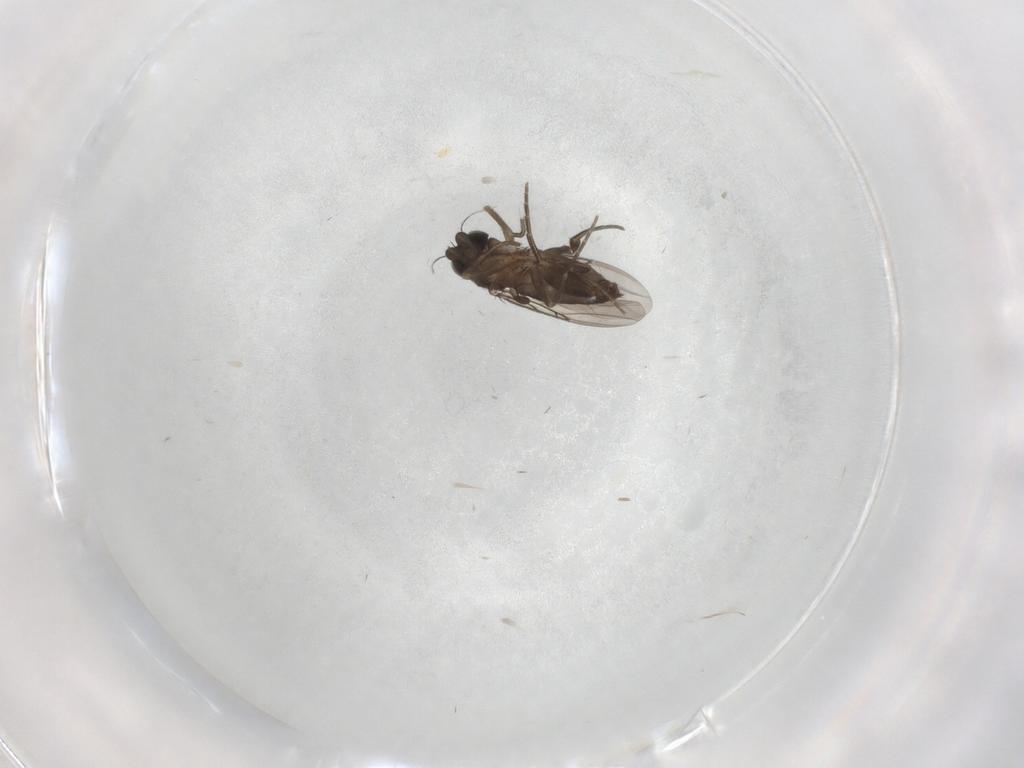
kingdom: Animalia
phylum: Arthropoda
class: Insecta
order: Diptera
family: Phoridae
